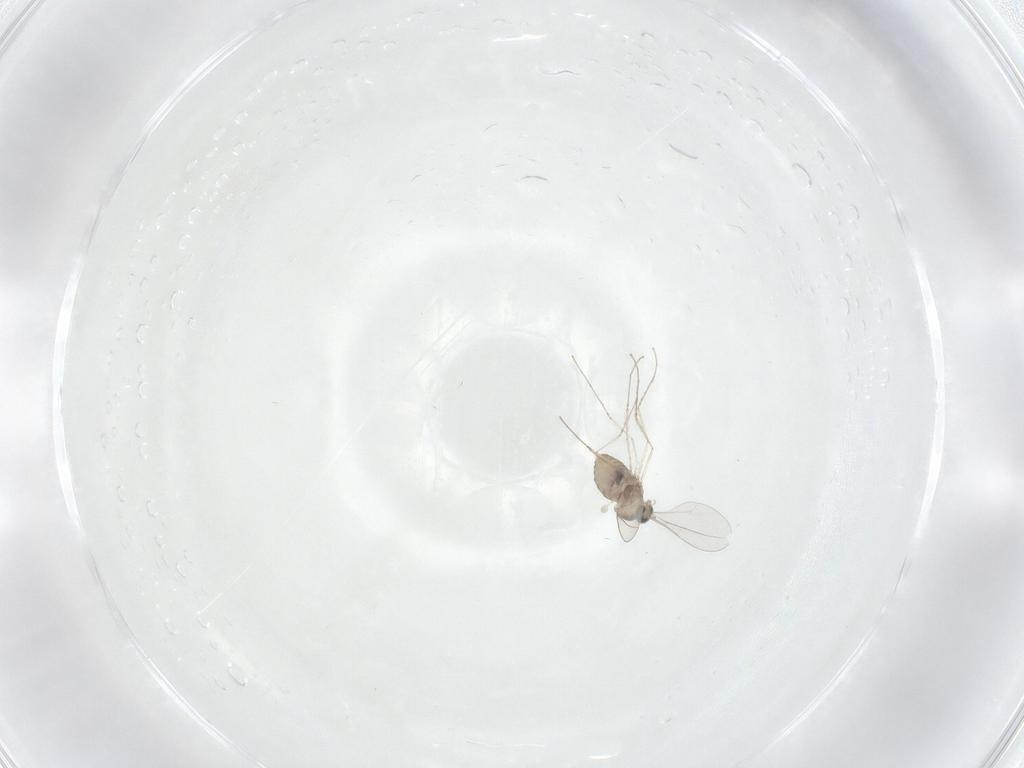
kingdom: Animalia
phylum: Arthropoda
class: Insecta
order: Diptera
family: Cecidomyiidae
